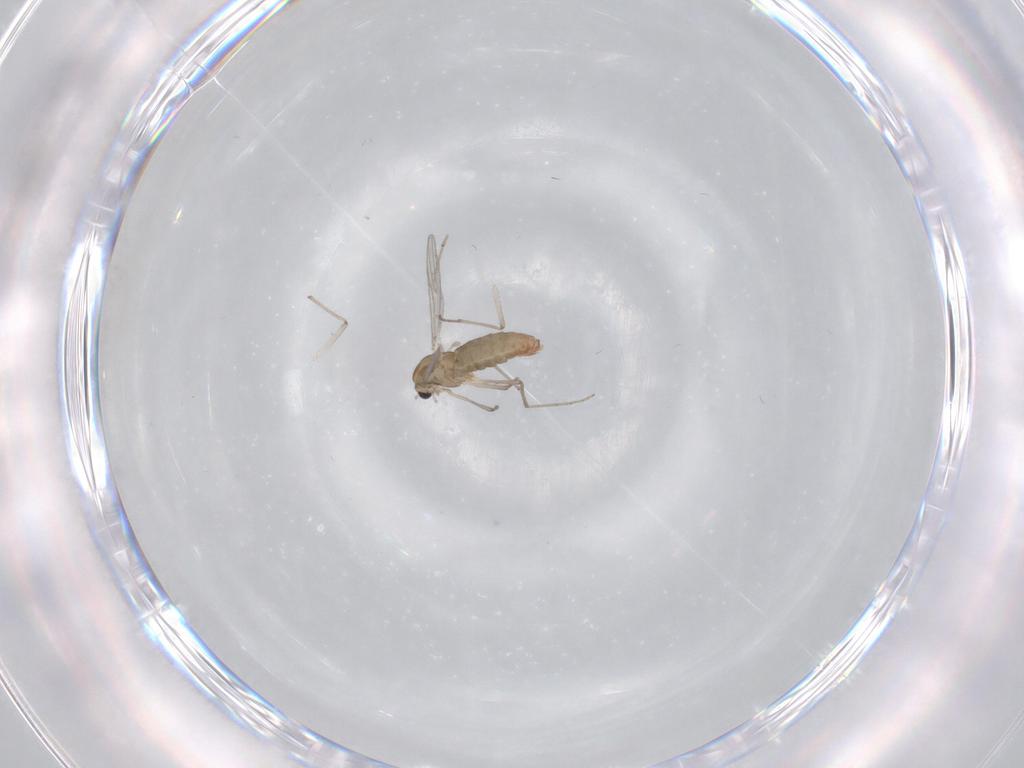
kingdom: Animalia
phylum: Arthropoda
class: Insecta
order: Diptera
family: Chironomidae
